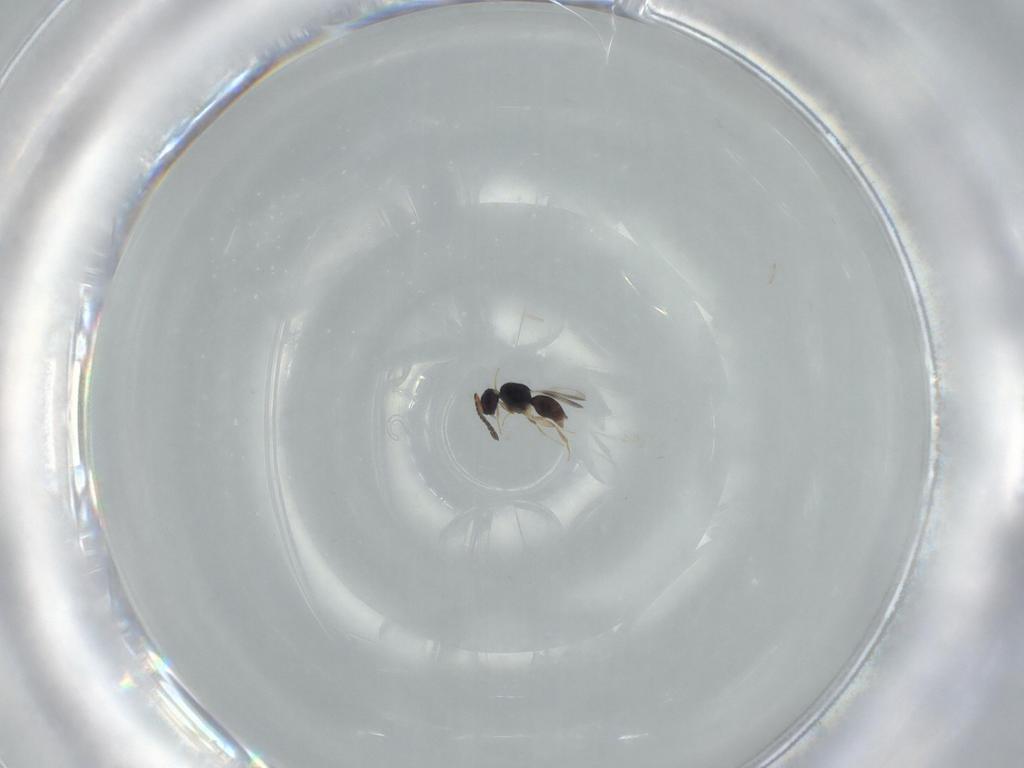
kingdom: Animalia
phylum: Arthropoda
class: Insecta
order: Hymenoptera
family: Ceraphronidae
